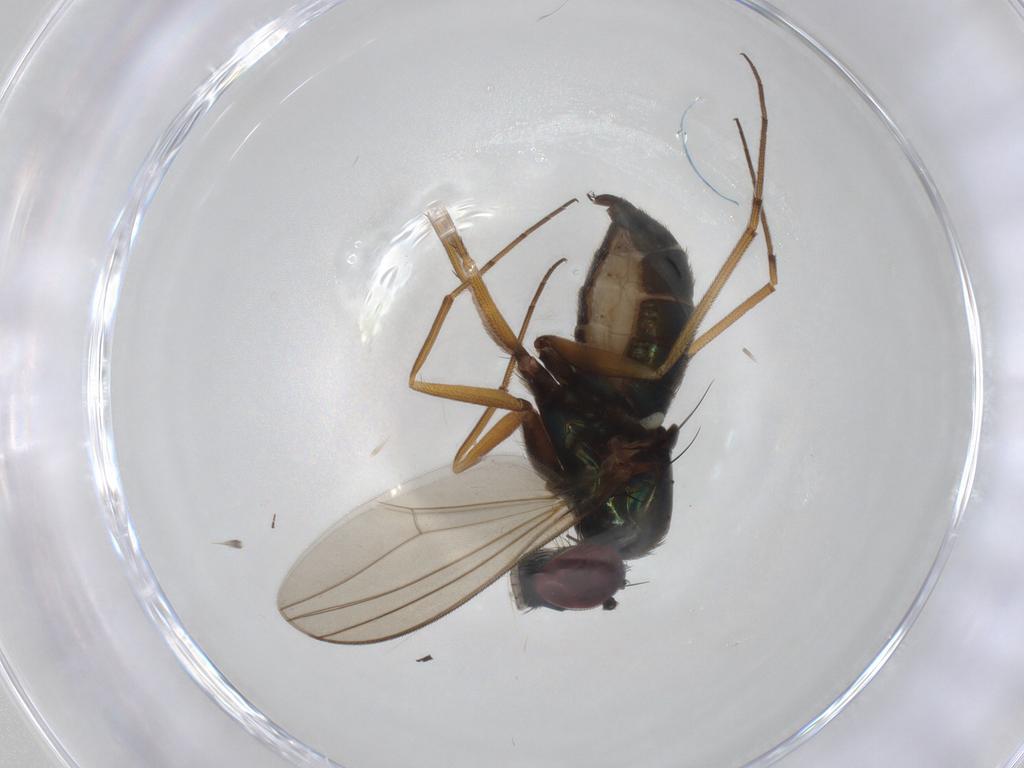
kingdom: Animalia
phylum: Arthropoda
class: Insecta
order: Diptera
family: Dolichopodidae
